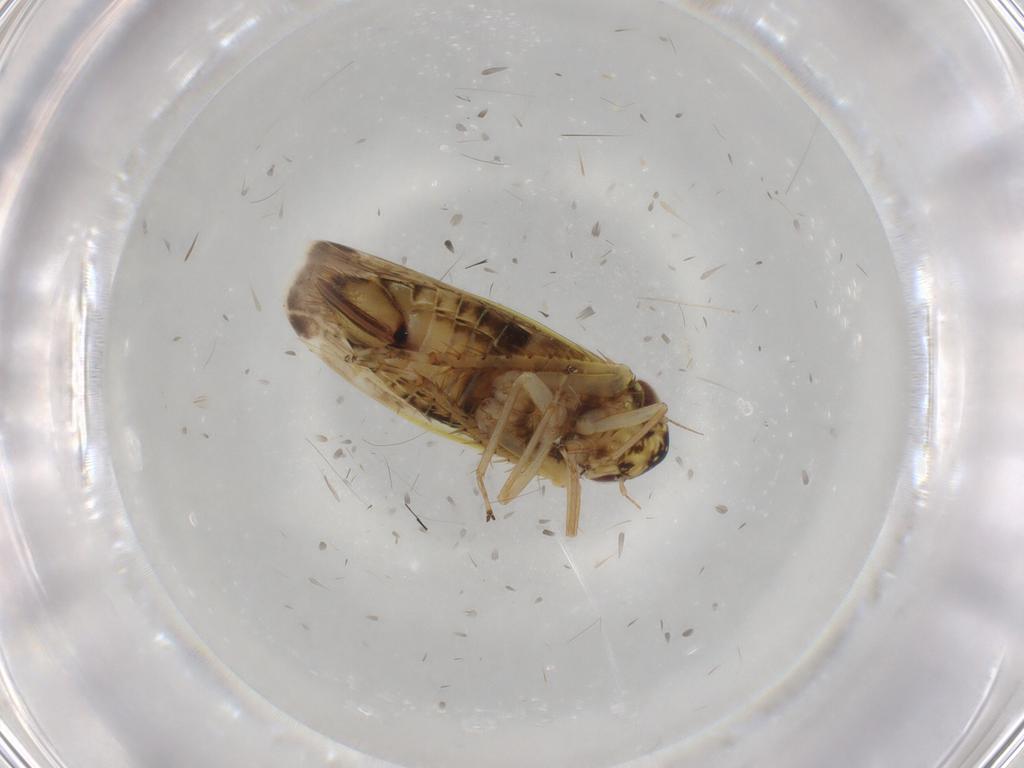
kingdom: Animalia
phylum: Arthropoda
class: Insecta
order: Hemiptera
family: Cicadellidae
